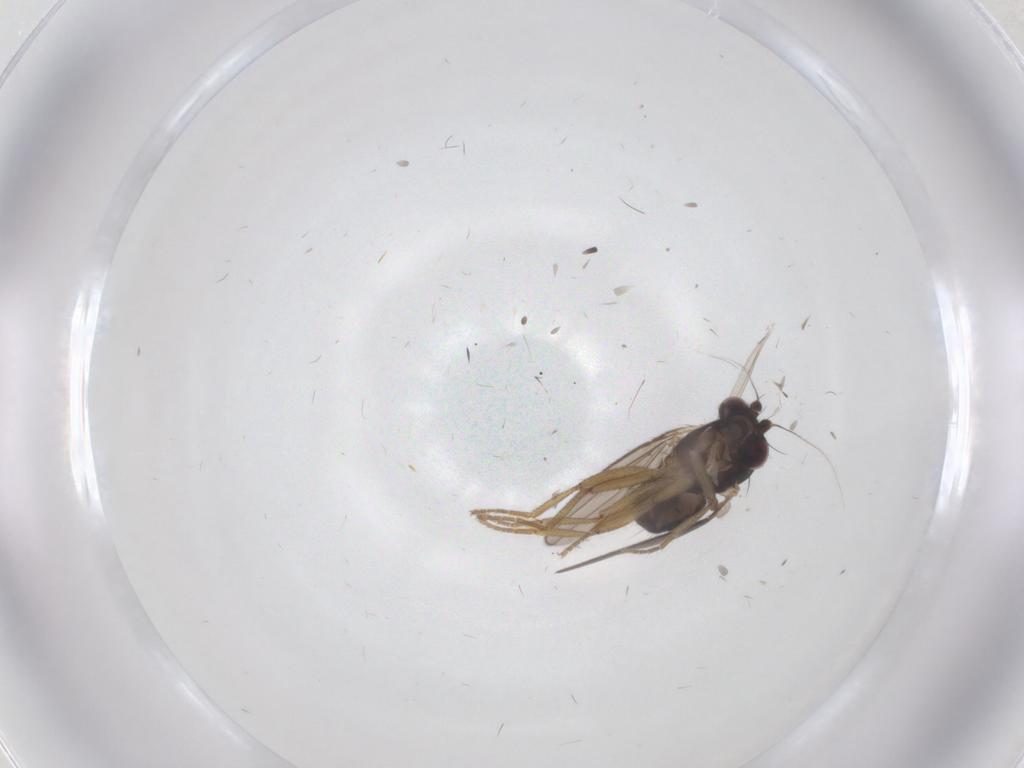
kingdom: Animalia
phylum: Arthropoda
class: Insecta
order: Diptera
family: Inbiomyiidae
